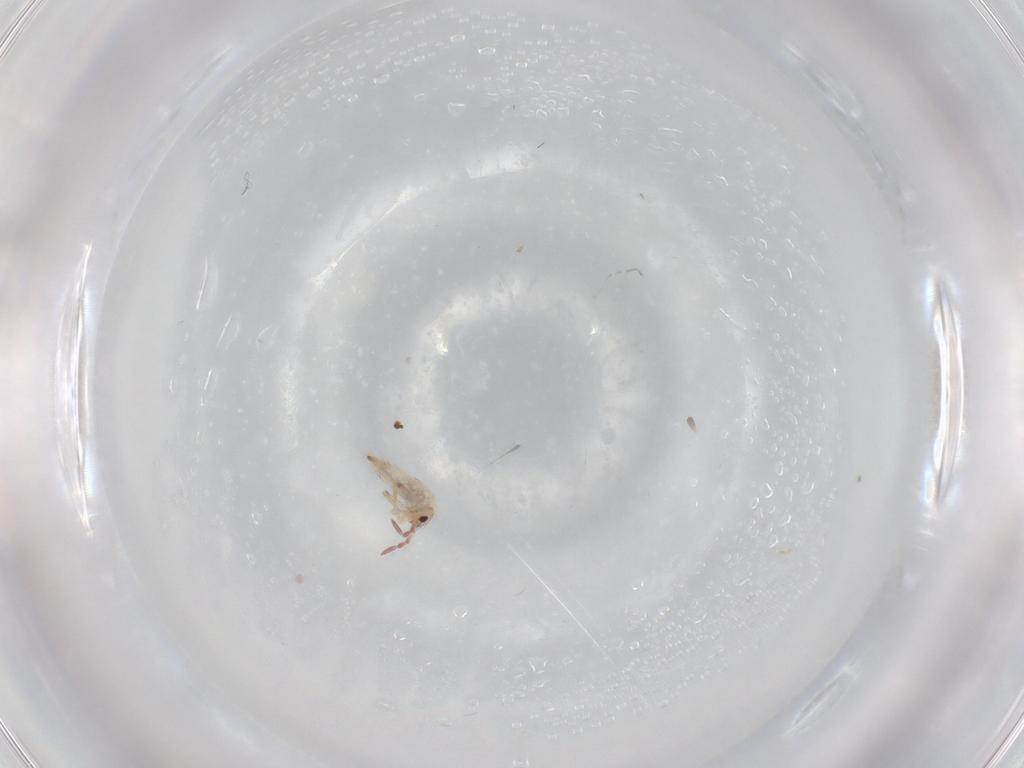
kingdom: Animalia
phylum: Arthropoda
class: Collembola
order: Entomobryomorpha
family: Entomobryidae
